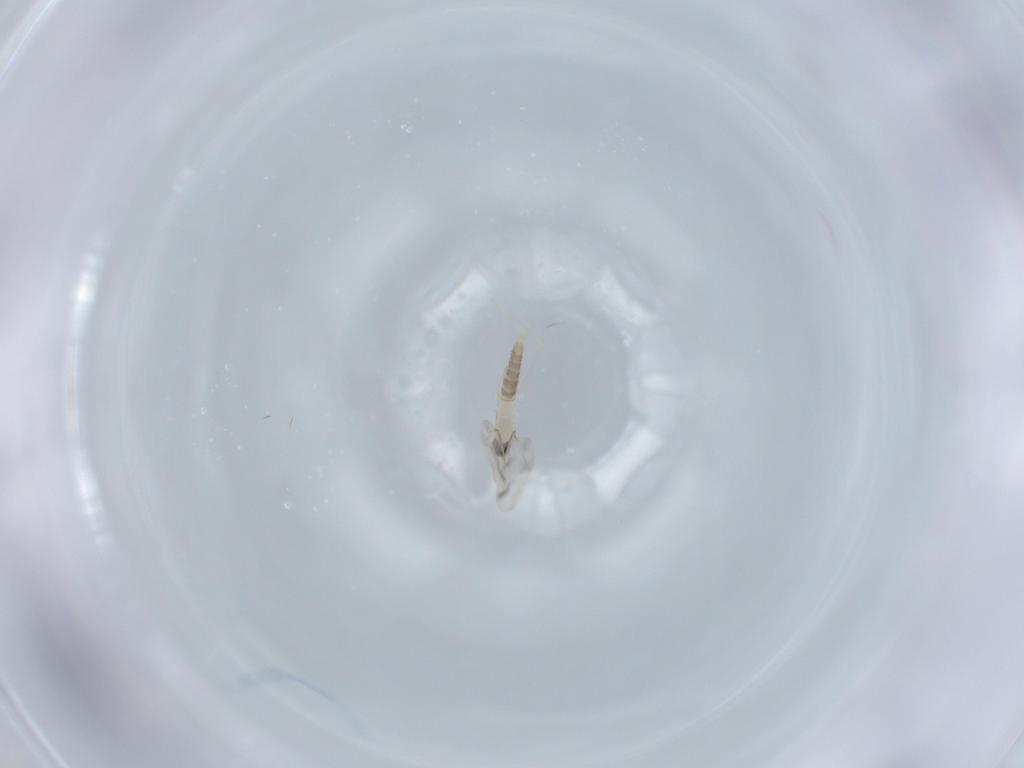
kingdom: Animalia
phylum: Arthropoda
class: Insecta
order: Diptera
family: Cecidomyiidae
